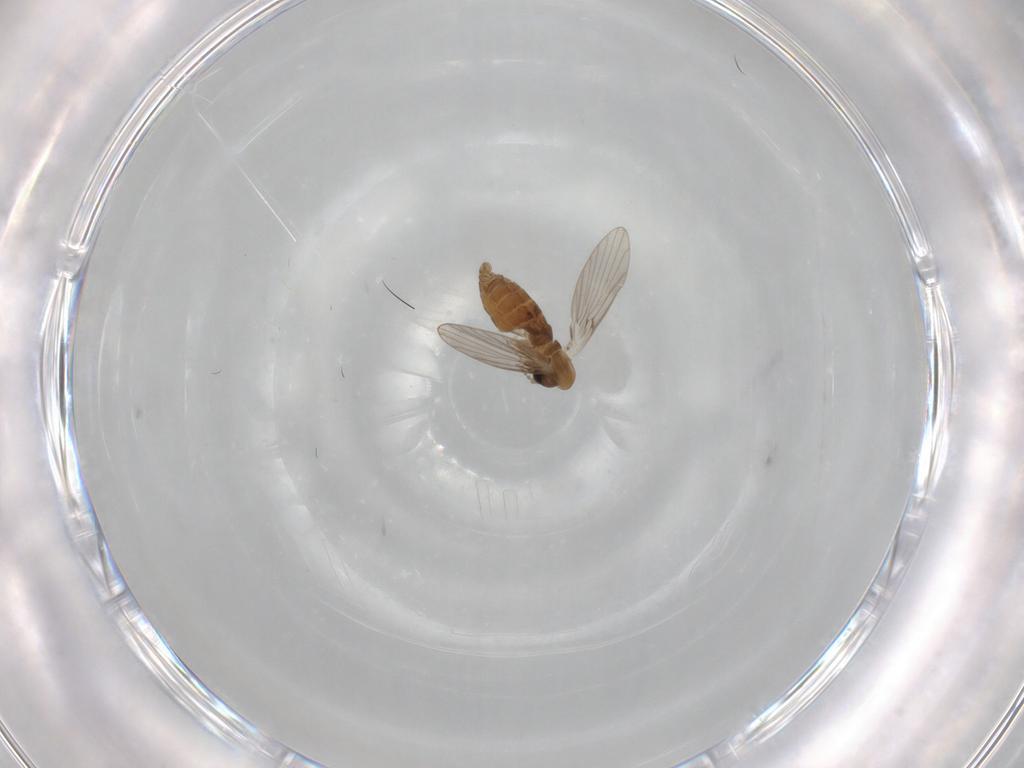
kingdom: Animalia
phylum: Arthropoda
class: Insecta
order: Diptera
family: Psychodidae
